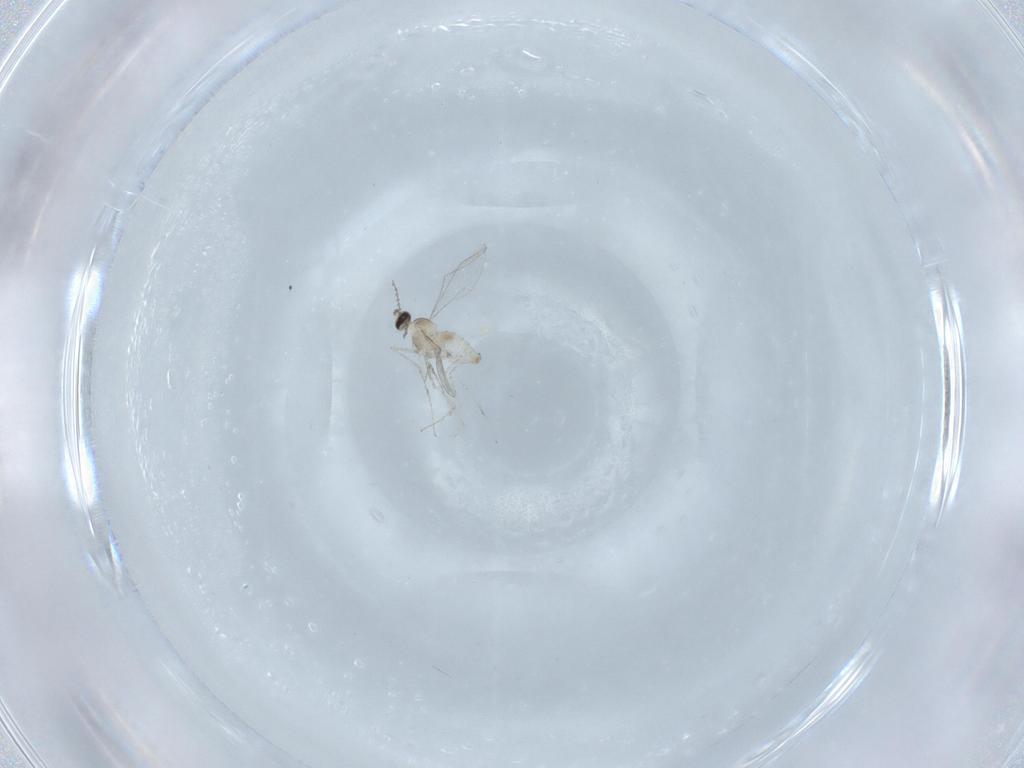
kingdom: Animalia
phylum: Arthropoda
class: Insecta
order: Diptera
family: Cecidomyiidae
